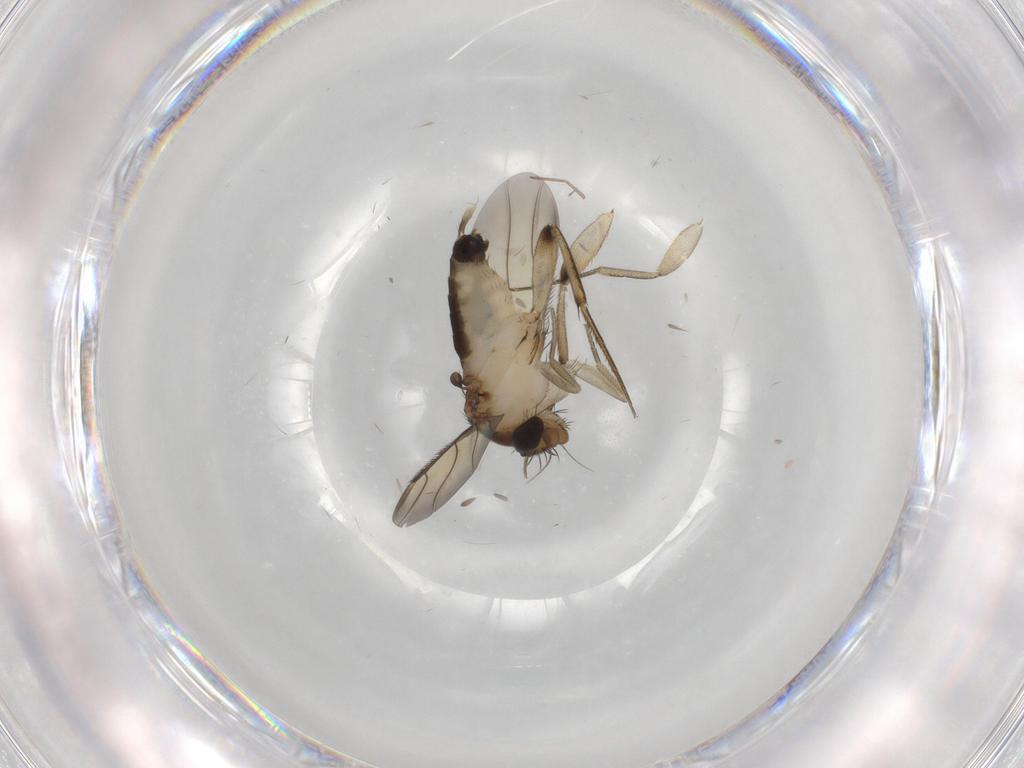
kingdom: Animalia
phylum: Arthropoda
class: Insecta
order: Diptera
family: Phoridae
